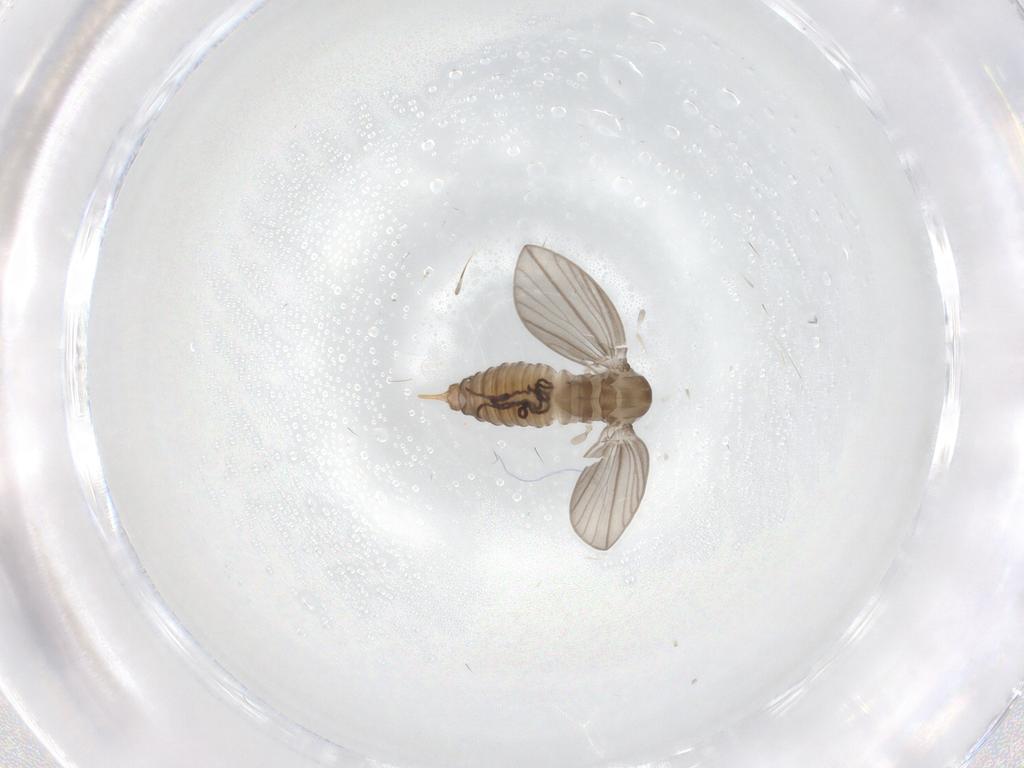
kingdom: Animalia
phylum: Arthropoda
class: Insecta
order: Diptera
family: Psychodidae
